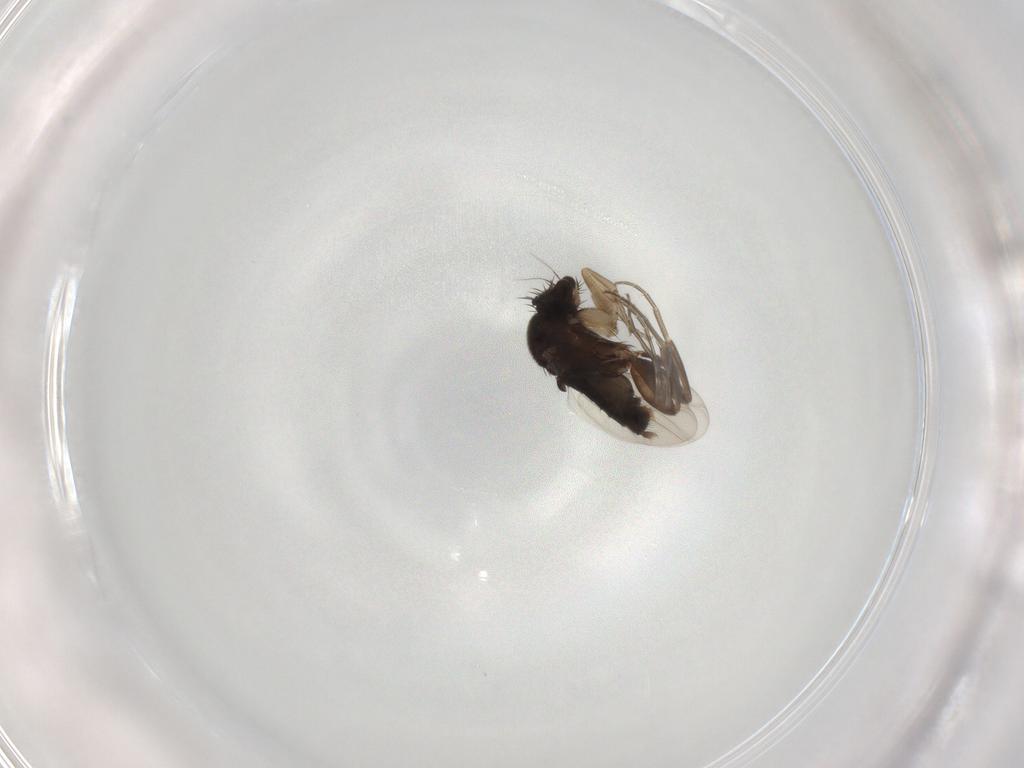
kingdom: Animalia
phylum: Arthropoda
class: Insecta
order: Diptera
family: Phoridae
